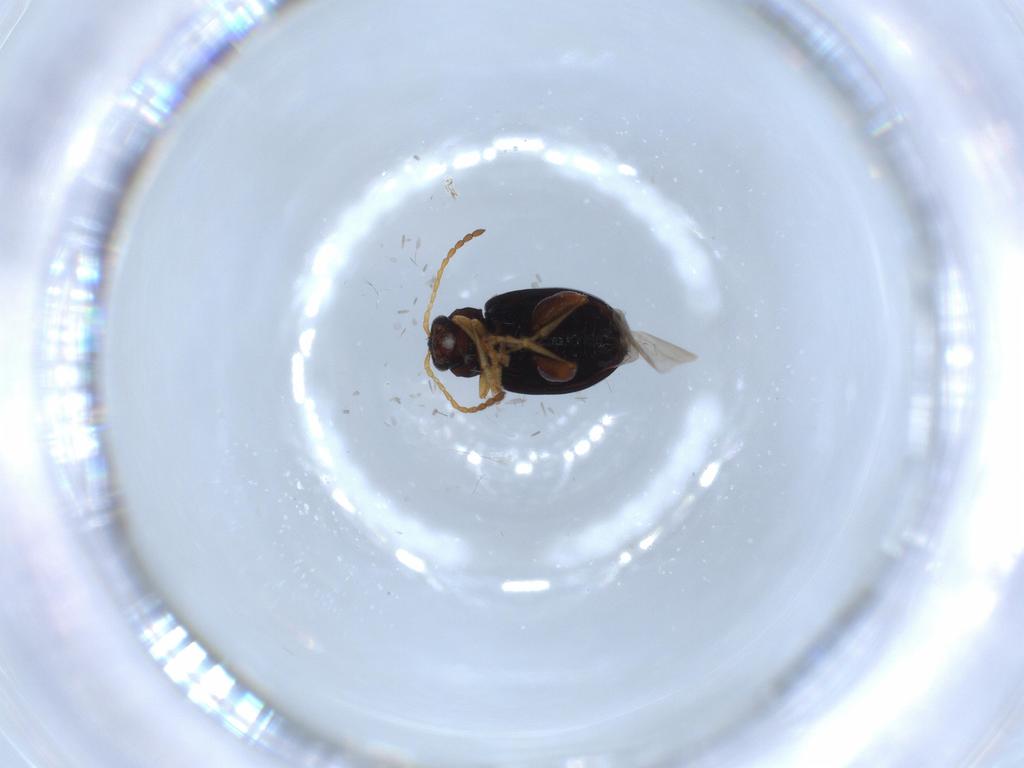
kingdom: Animalia
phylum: Arthropoda
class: Insecta
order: Coleoptera
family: Chrysomelidae
